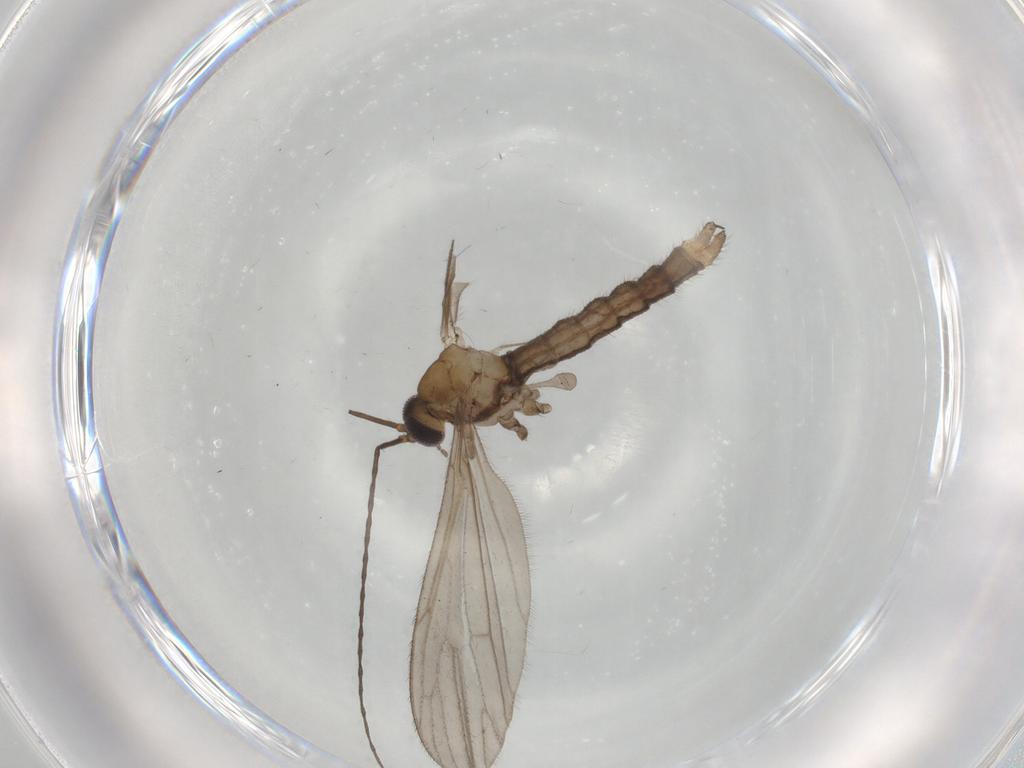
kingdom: Animalia
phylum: Arthropoda
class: Insecta
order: Diptera
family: Limoniidae
